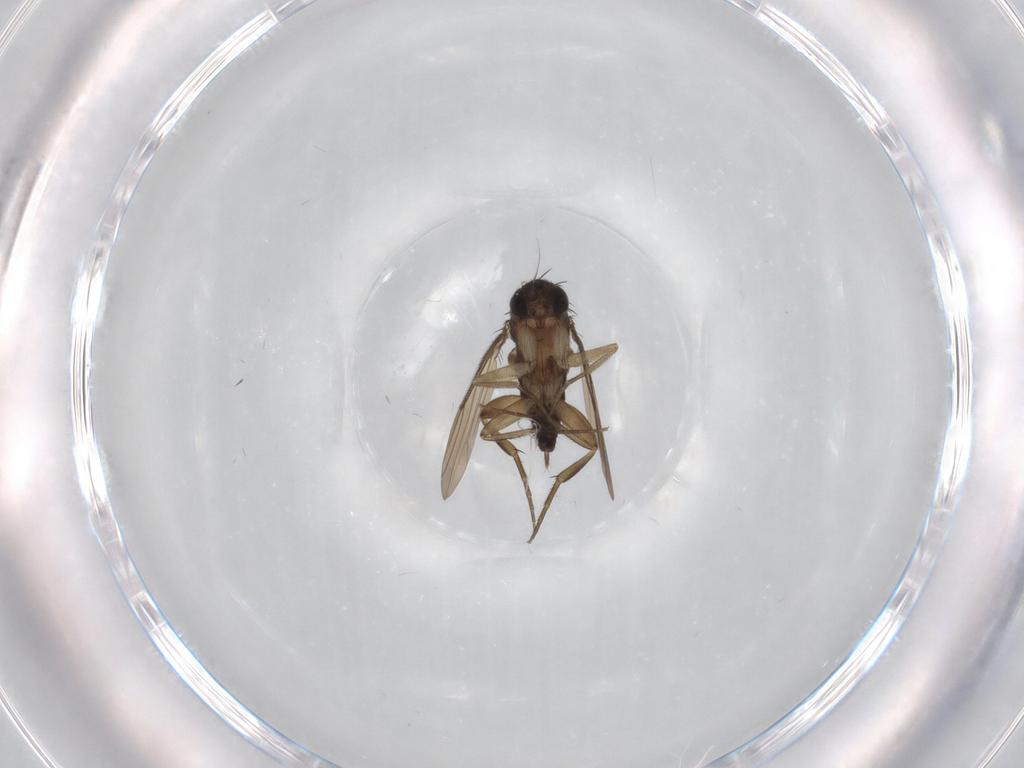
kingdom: Animalia
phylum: Arthropoda
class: Insecta
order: Diptera
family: Phoridae
